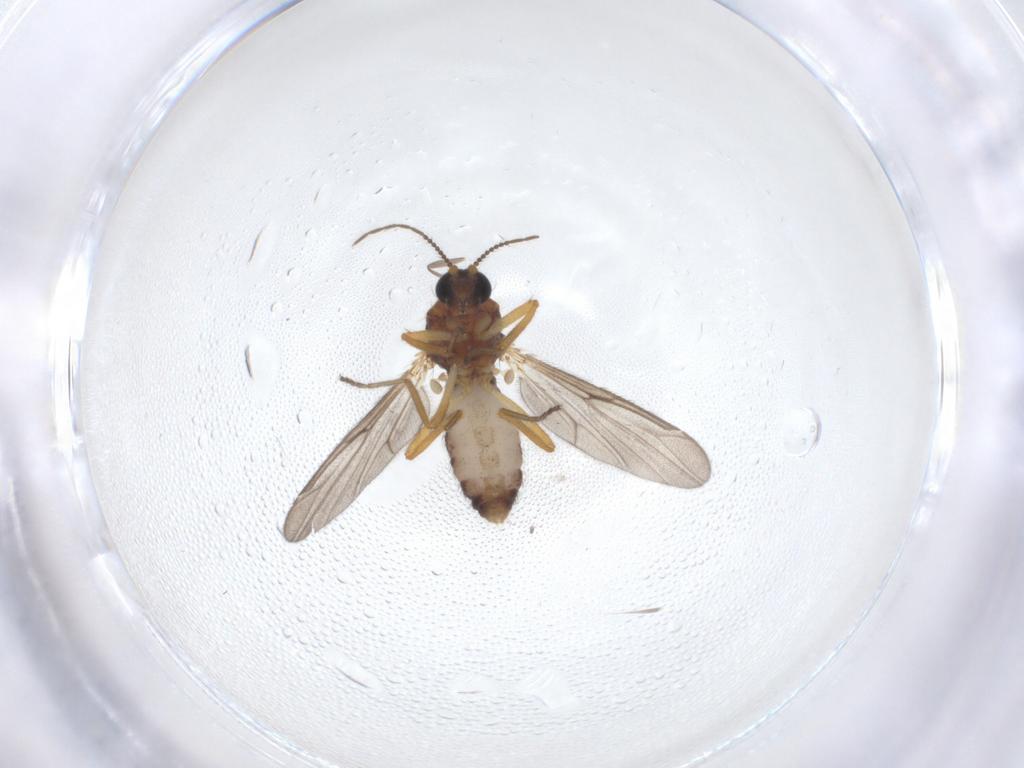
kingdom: Animalia
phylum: Arthropoda
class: Insecta
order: Diptera
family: Ceratopogonidae
